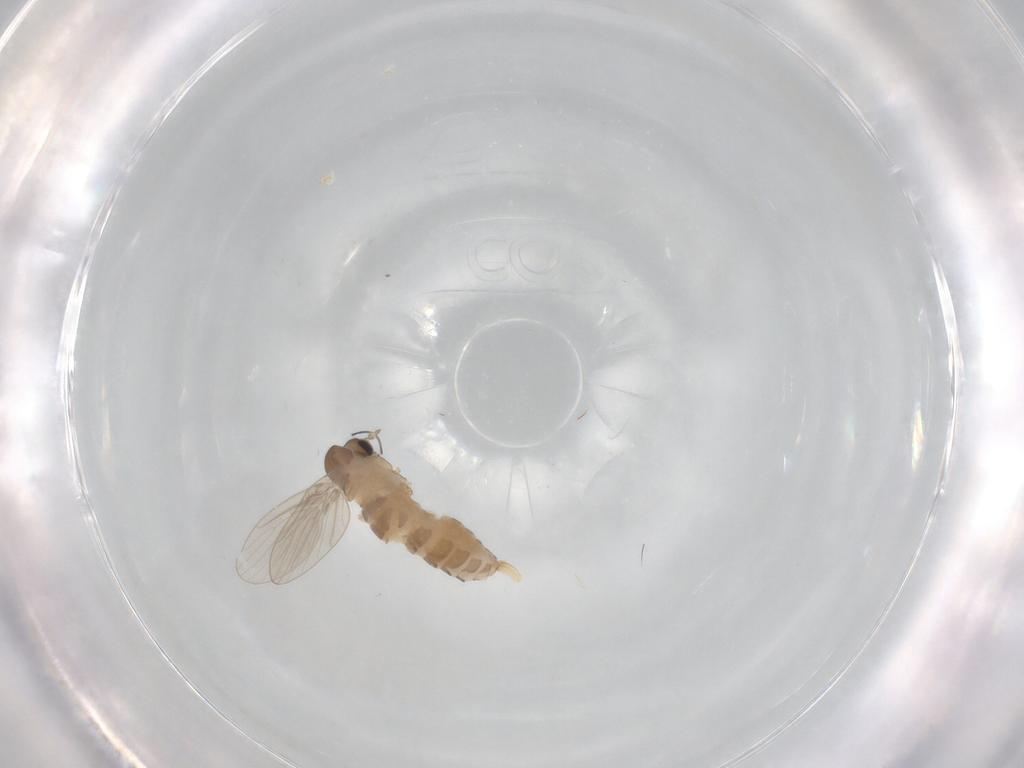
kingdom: Animalia
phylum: Arthropoda
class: Insecta
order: Diptera
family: Psychodidae
